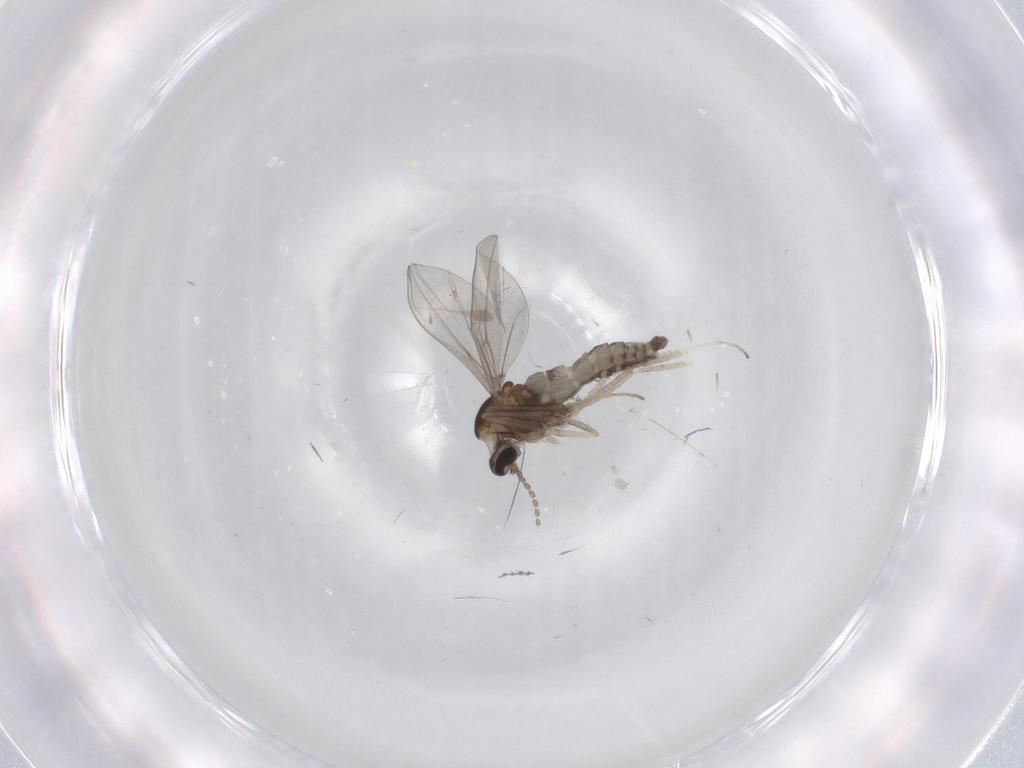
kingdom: Animalia
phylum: Arthropoda
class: Insecta
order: Diptera
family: Cecidomyiidae
